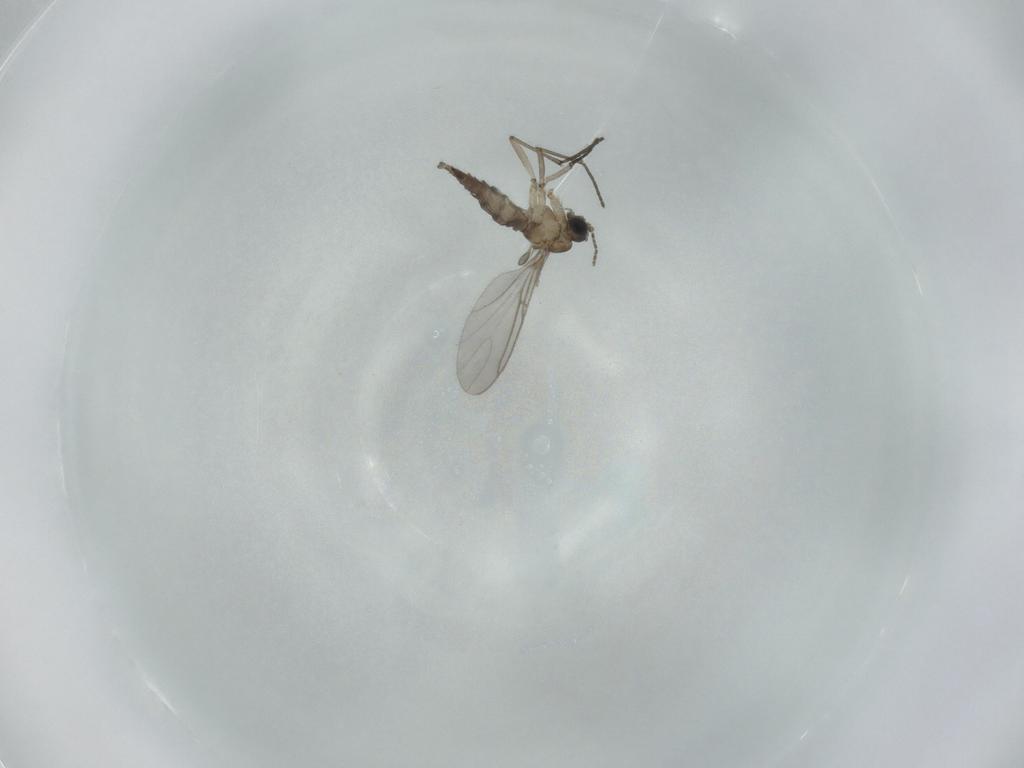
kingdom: Animalia
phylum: Arthropoda
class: Insecta
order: Diptera
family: Sciaridae
